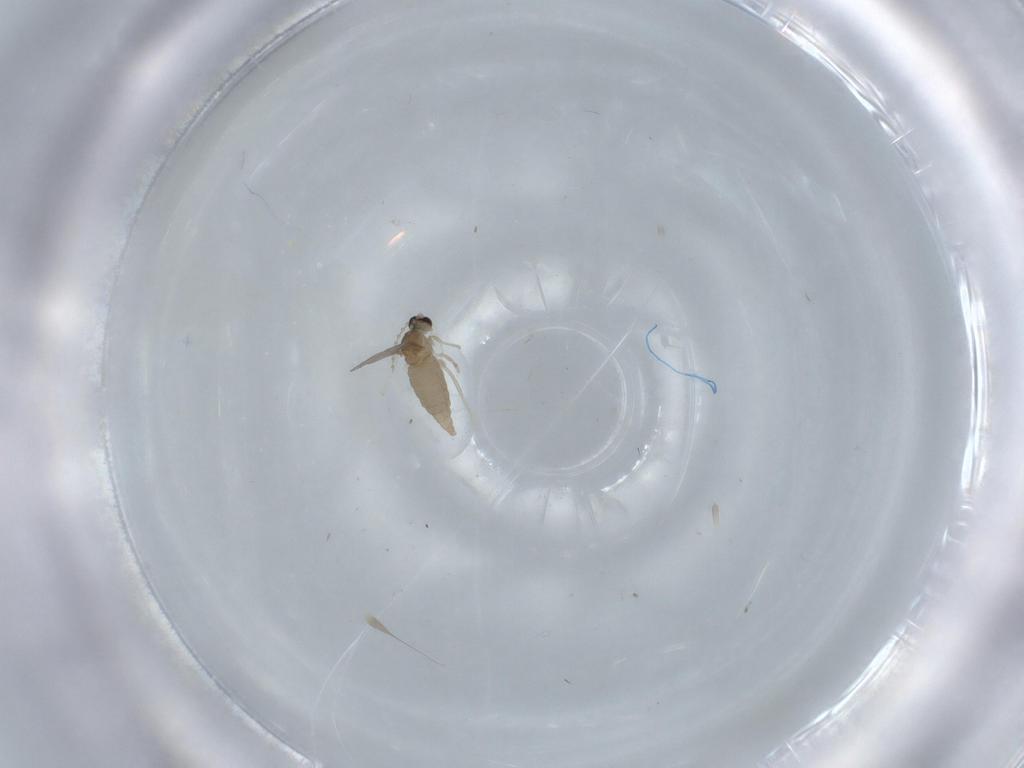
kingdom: Animalia
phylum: Arthropoda
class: Insecta
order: Diptera
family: Cecidomyiidae
